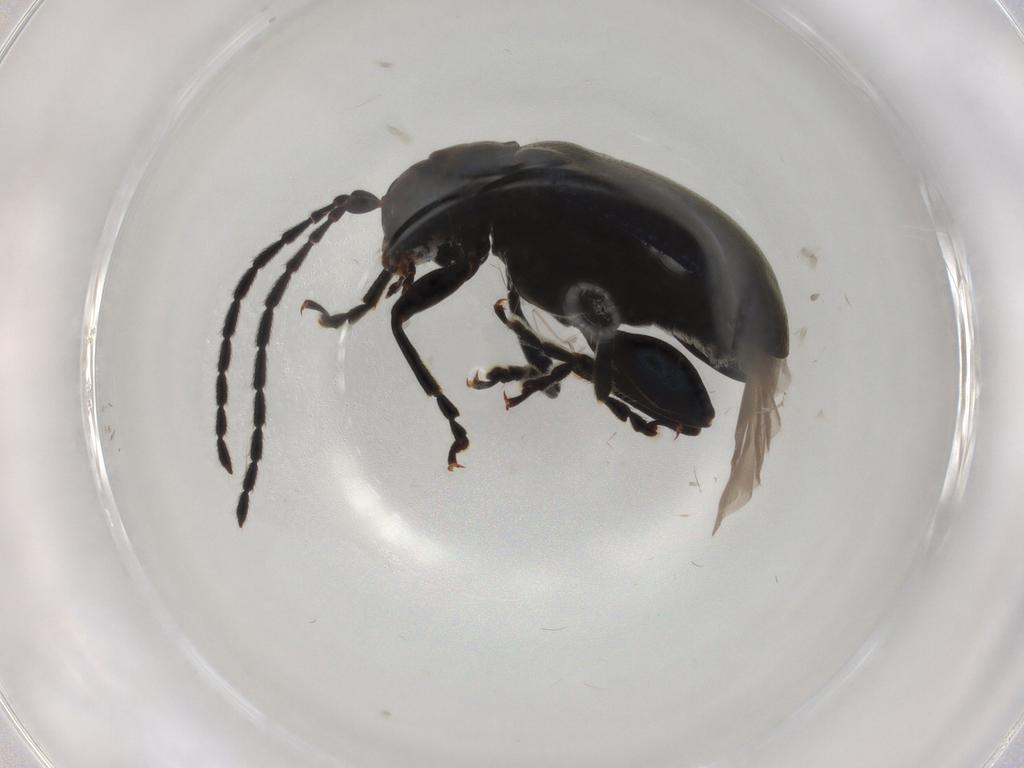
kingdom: Animalia
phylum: Arthropoda
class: Insecta
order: Coleoptera
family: Chrysomelidae
